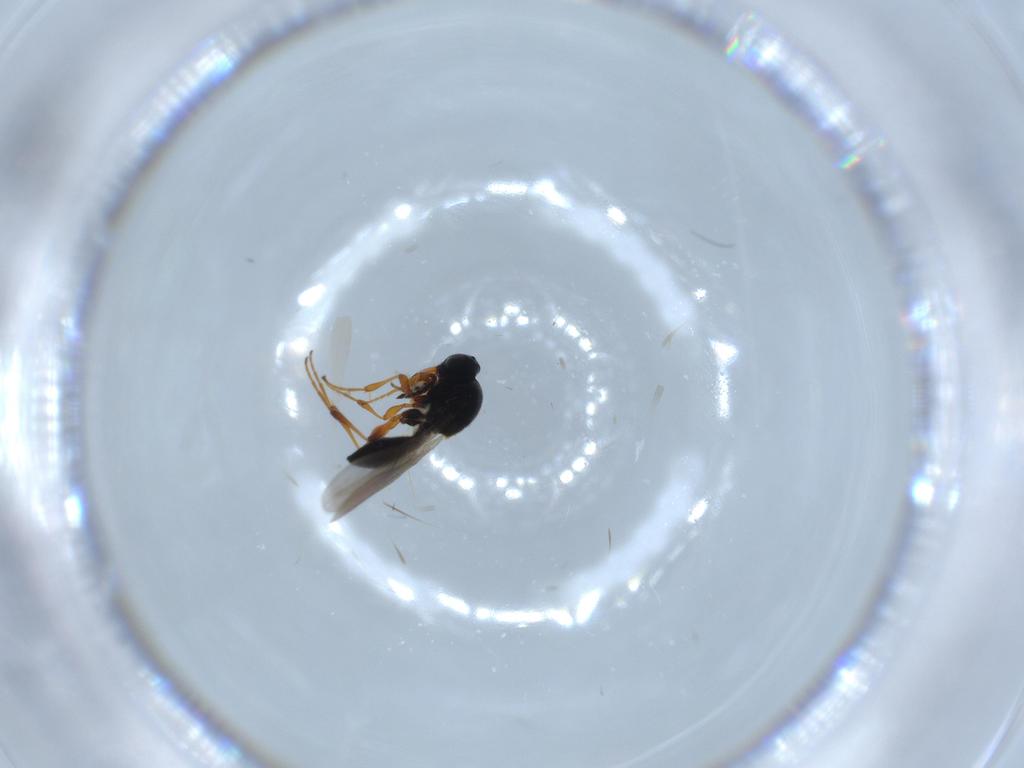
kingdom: Animalia
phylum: Arthropoda
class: Insecta
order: Hymenoptera
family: Platygastridae
